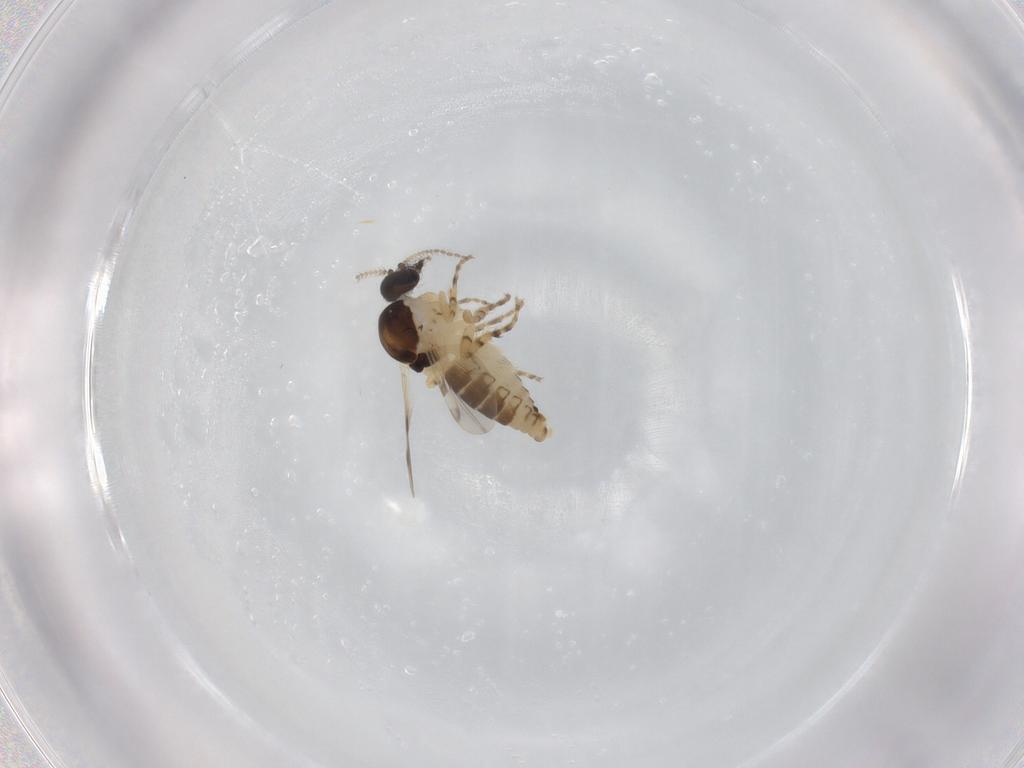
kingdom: Animalia
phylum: Arthropoda
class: Insecta
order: Diptera
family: Ceratopogonidae
